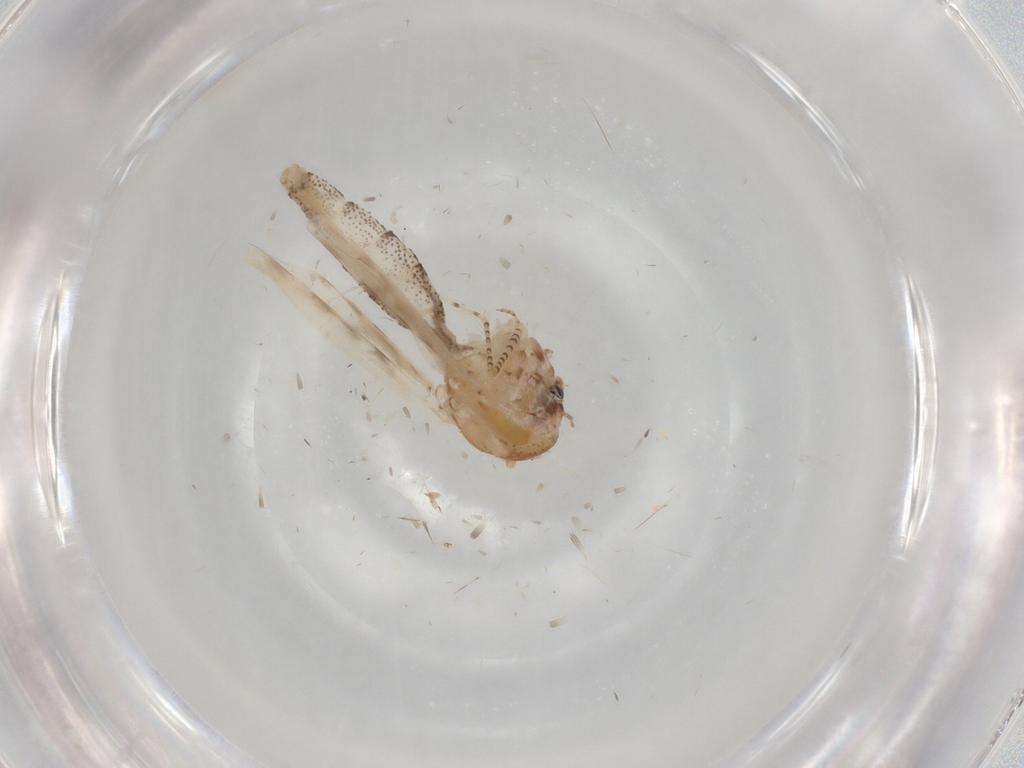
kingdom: Animalia
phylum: Arthropoda
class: Insecta
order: Diptera
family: Chaoboridae
